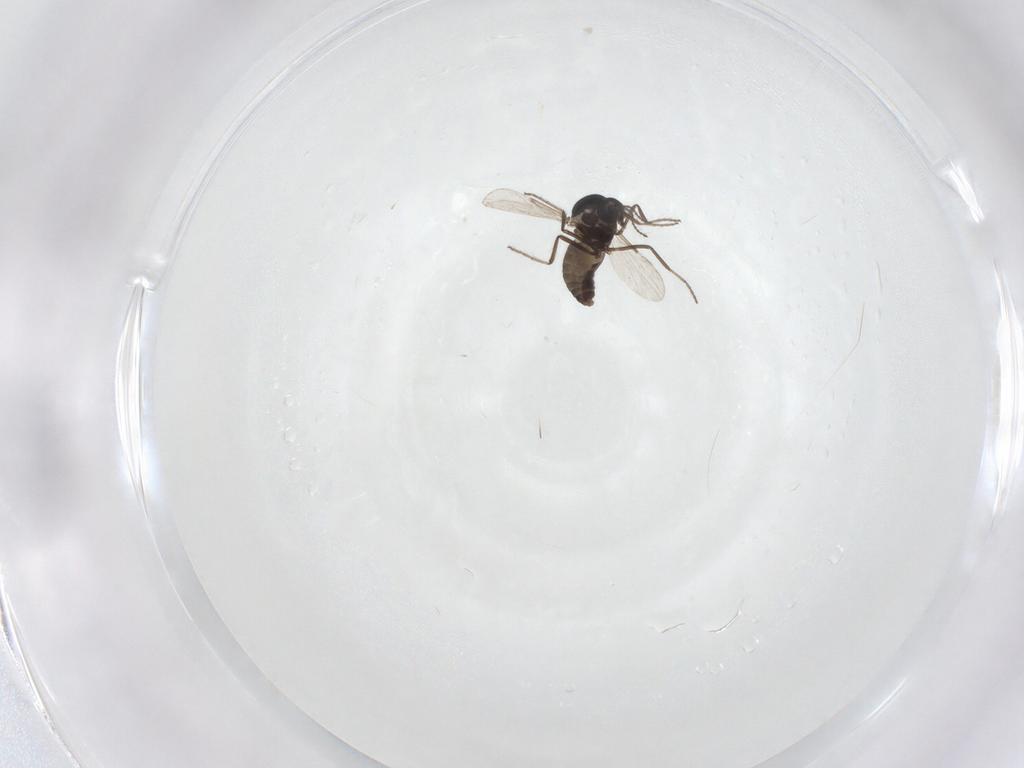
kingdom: Animalia
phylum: Arthropoda
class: Insecta
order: Diptera
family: Ceratopogonidae
